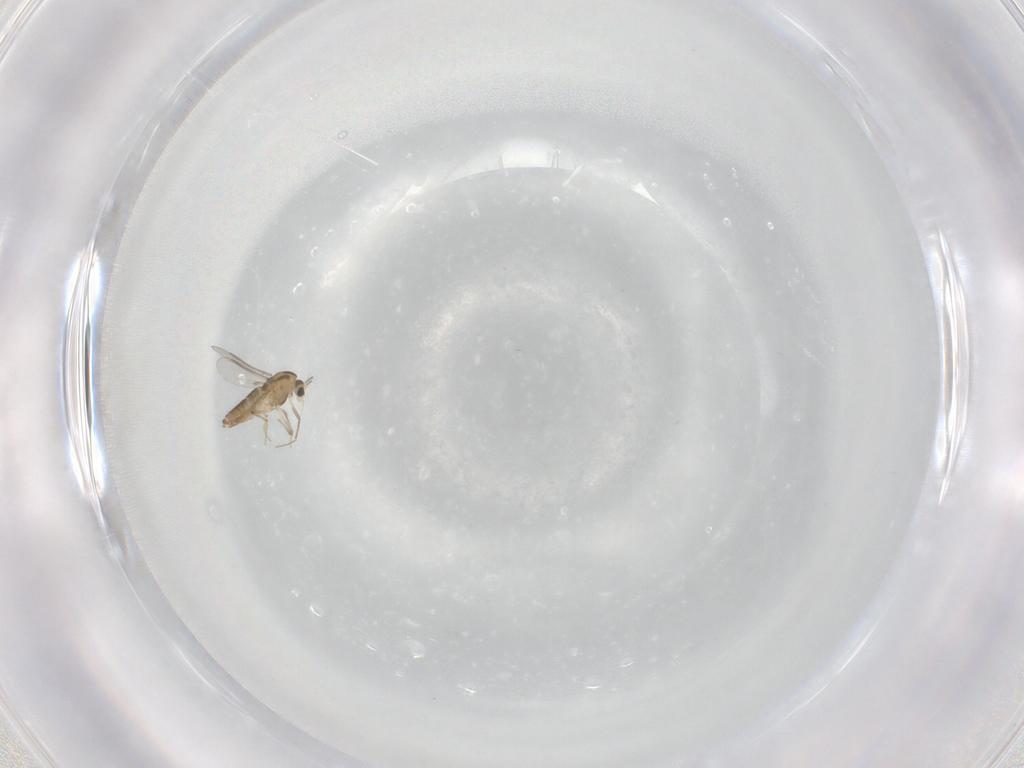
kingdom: Animalia
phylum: Arthropoda
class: Insecta
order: Diptera
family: Chironomidae
